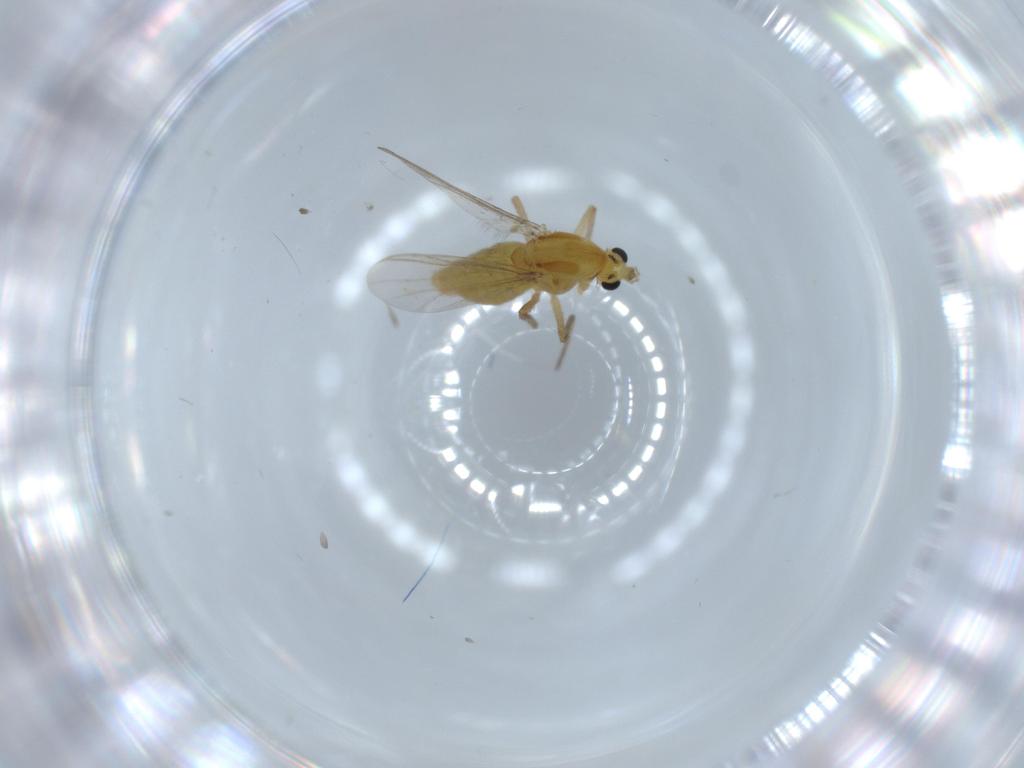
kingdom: Animalia
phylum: Arthropoda
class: Insecta
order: Diptera
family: Chironomidae
